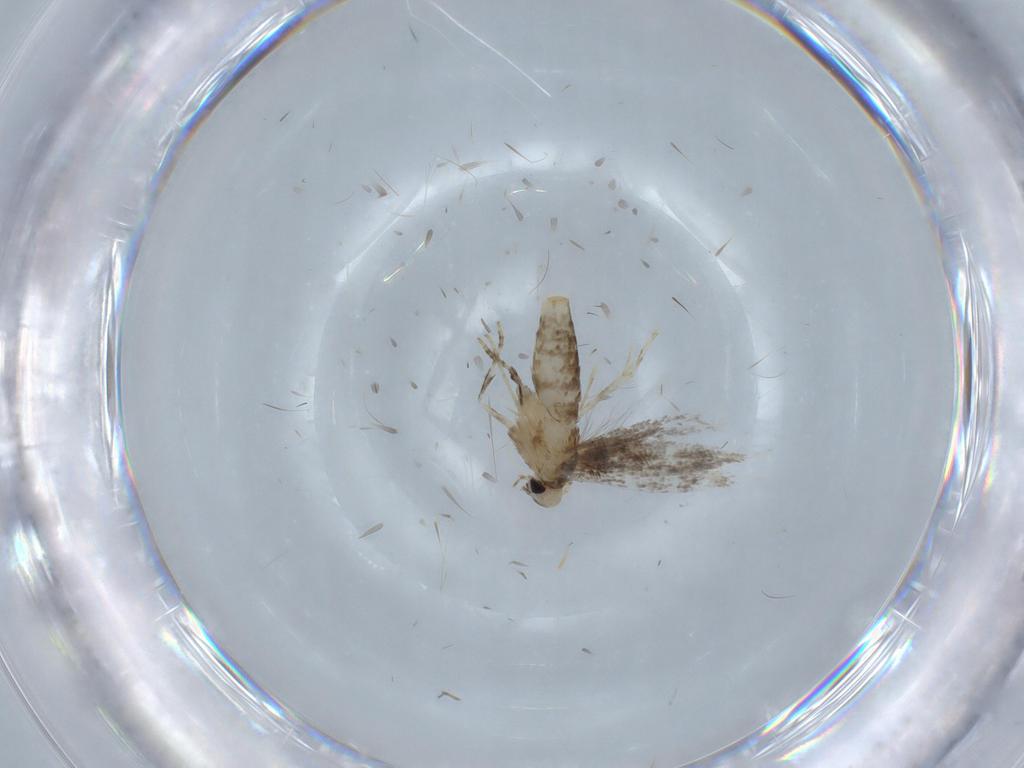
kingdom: Animalia
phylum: Arthropoda
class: Insecta
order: Lepidoptera
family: Gracillariidae
